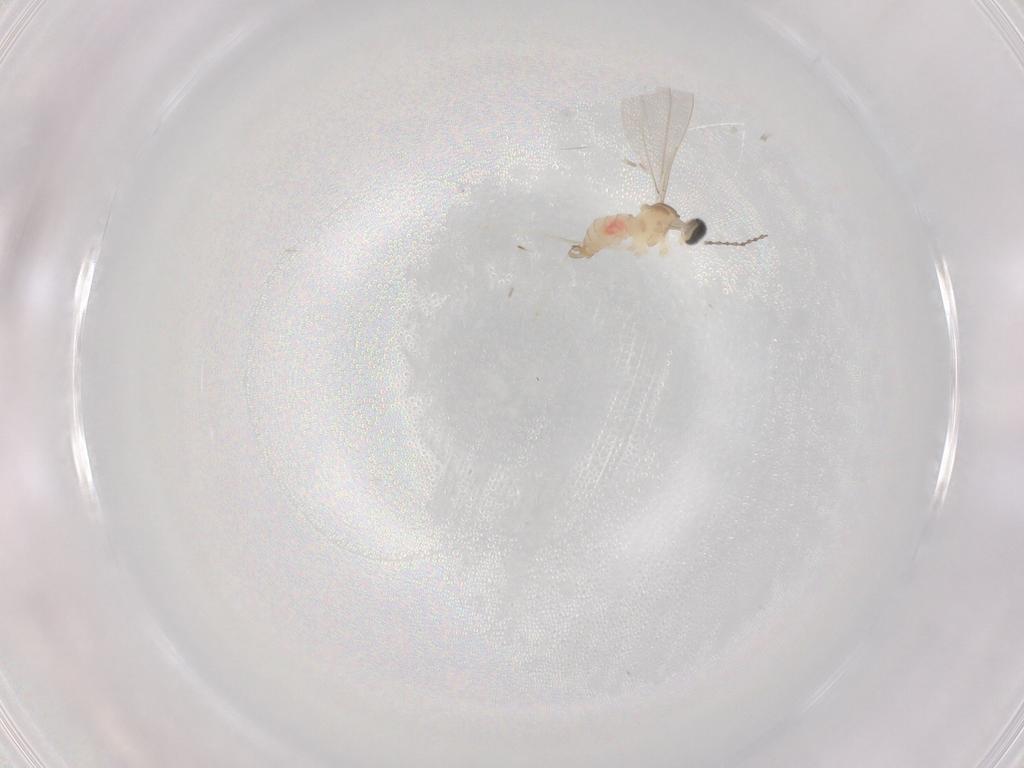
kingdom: Animalia
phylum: Arthropoda
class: Insecta
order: Diptera
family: Cecidomyiidae
